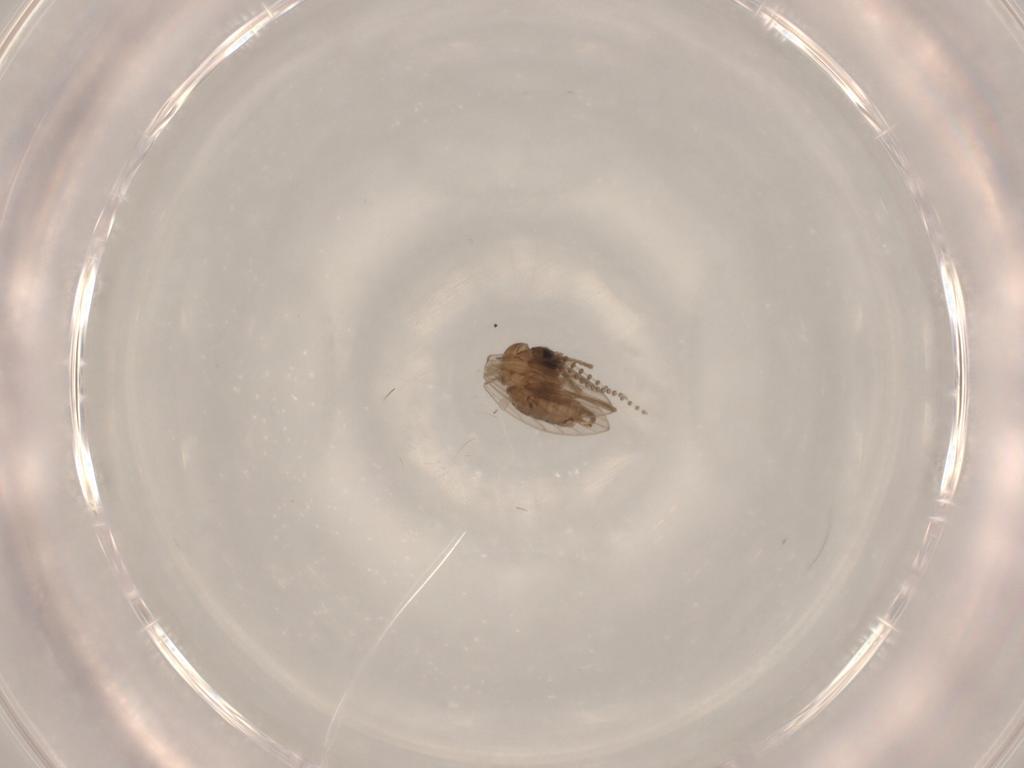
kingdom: Animalia
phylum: Arthropoda
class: Insecta
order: Diptera
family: Psychodidae
